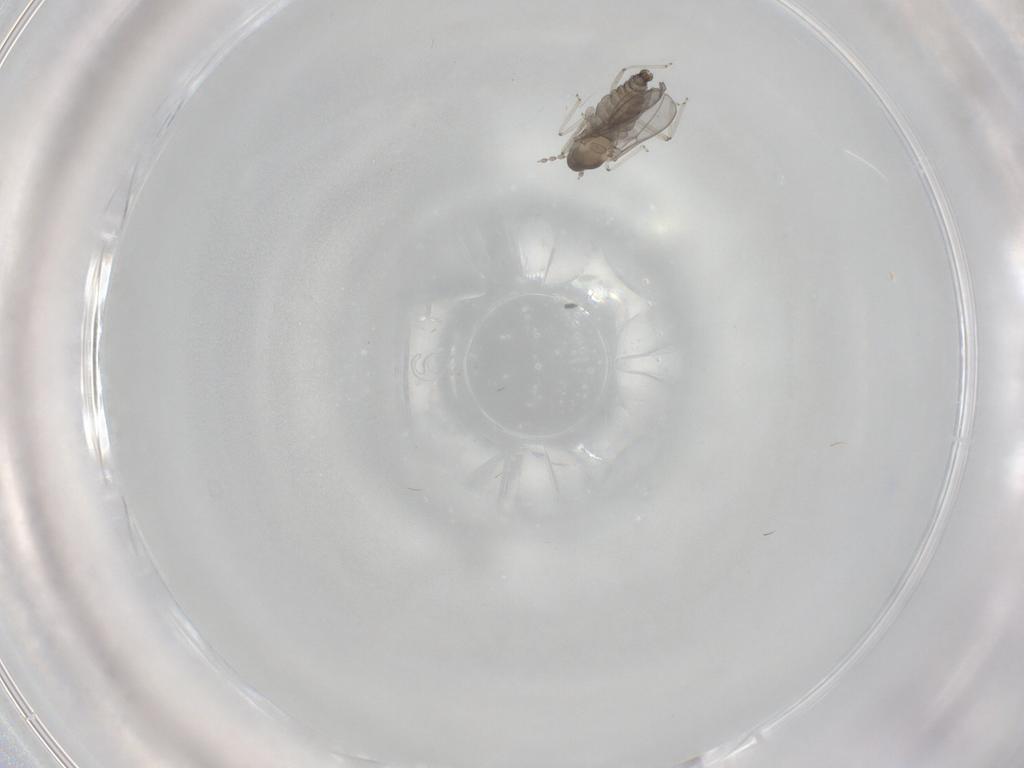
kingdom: Animalia
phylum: Arthropoda
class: Insecta
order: Diptera
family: Cecidomyiidae
